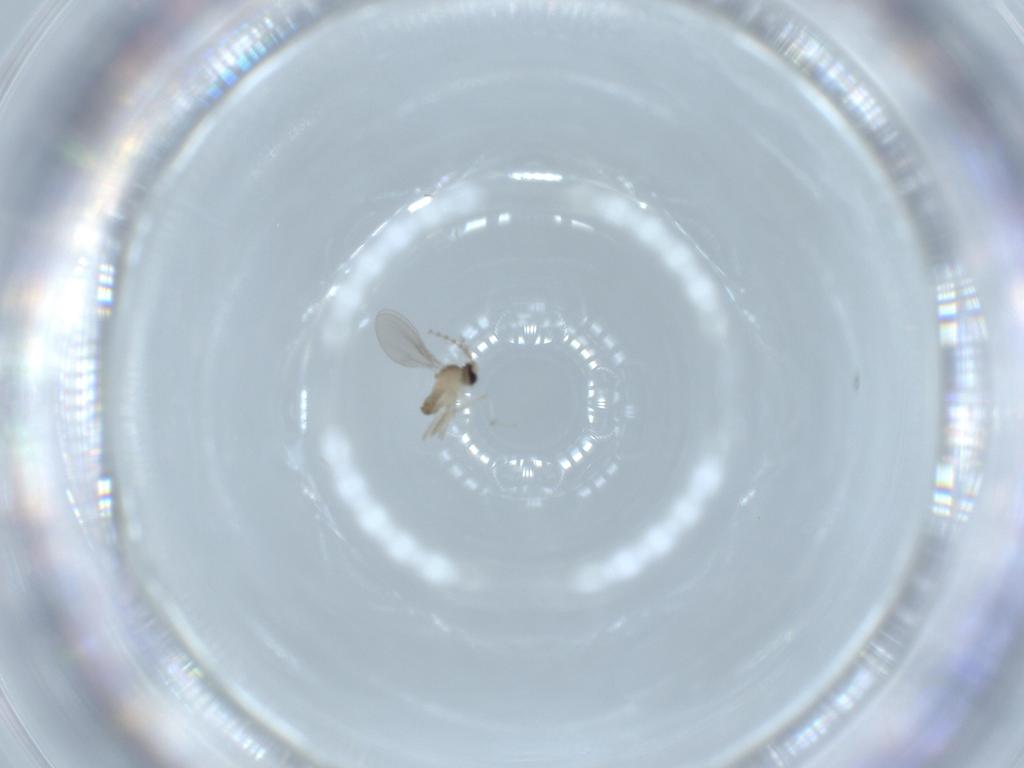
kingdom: Animalia
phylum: Arthropoda
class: Insecta
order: Diptera
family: Cecidomyiidae
